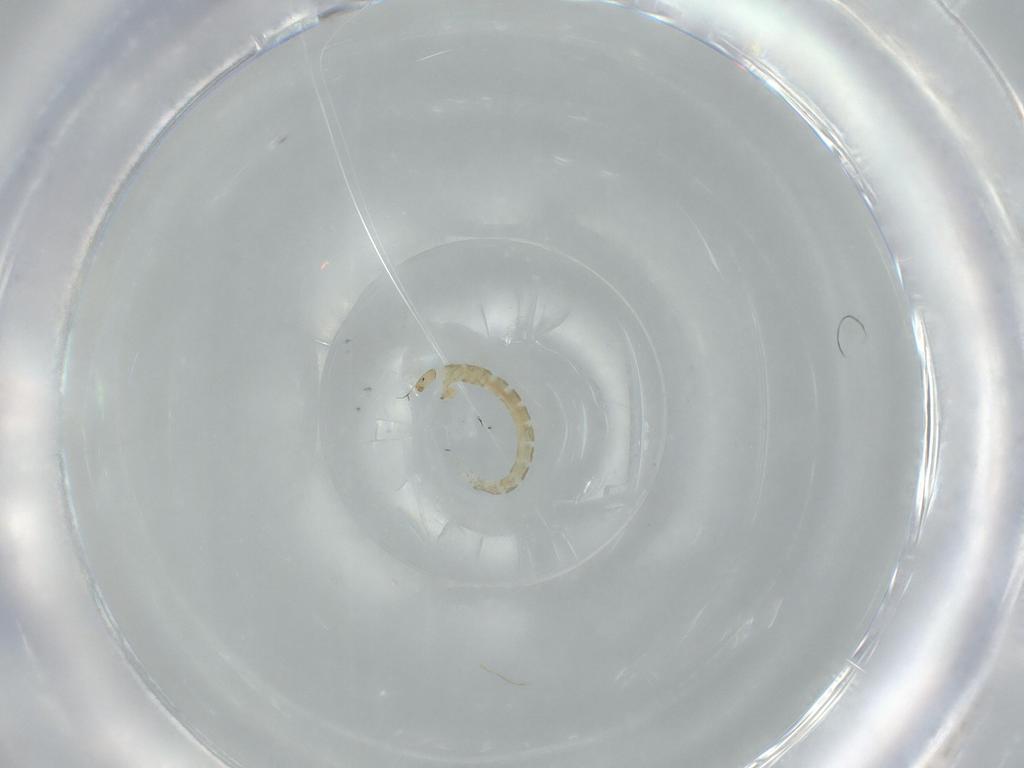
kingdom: Animalia
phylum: Arthropoda
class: Insecta
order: Diptera
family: Chironomidae
